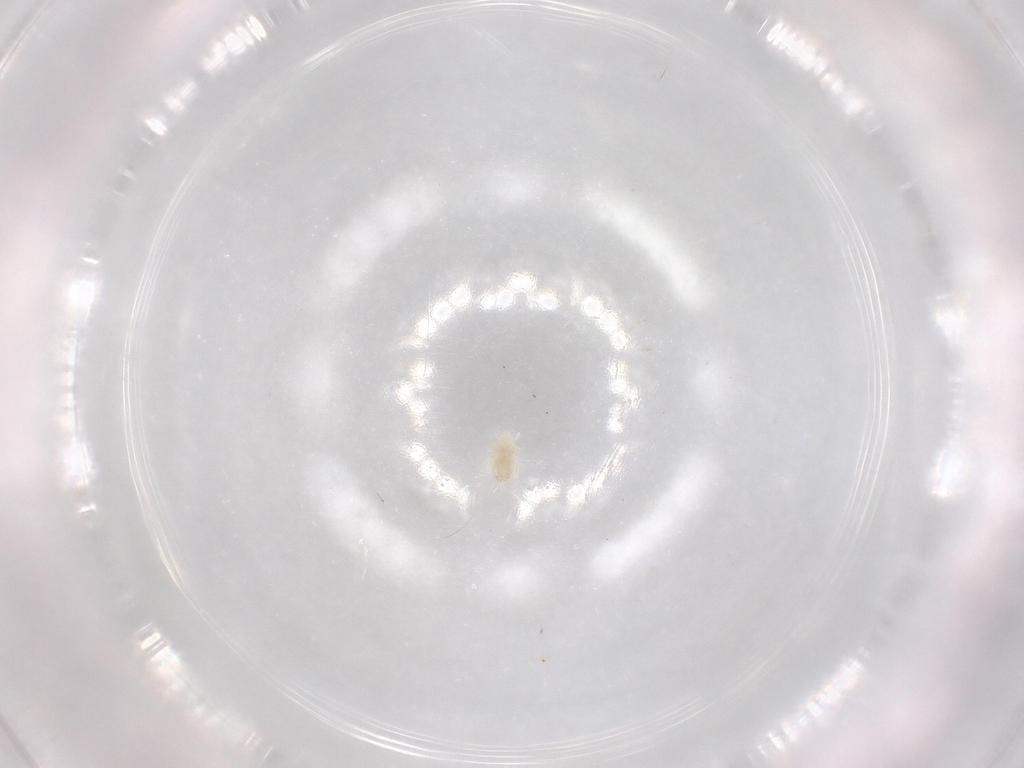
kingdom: Animalia
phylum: Arthropoda
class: Arachnida
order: Trombidiformes
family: Eupodidae
